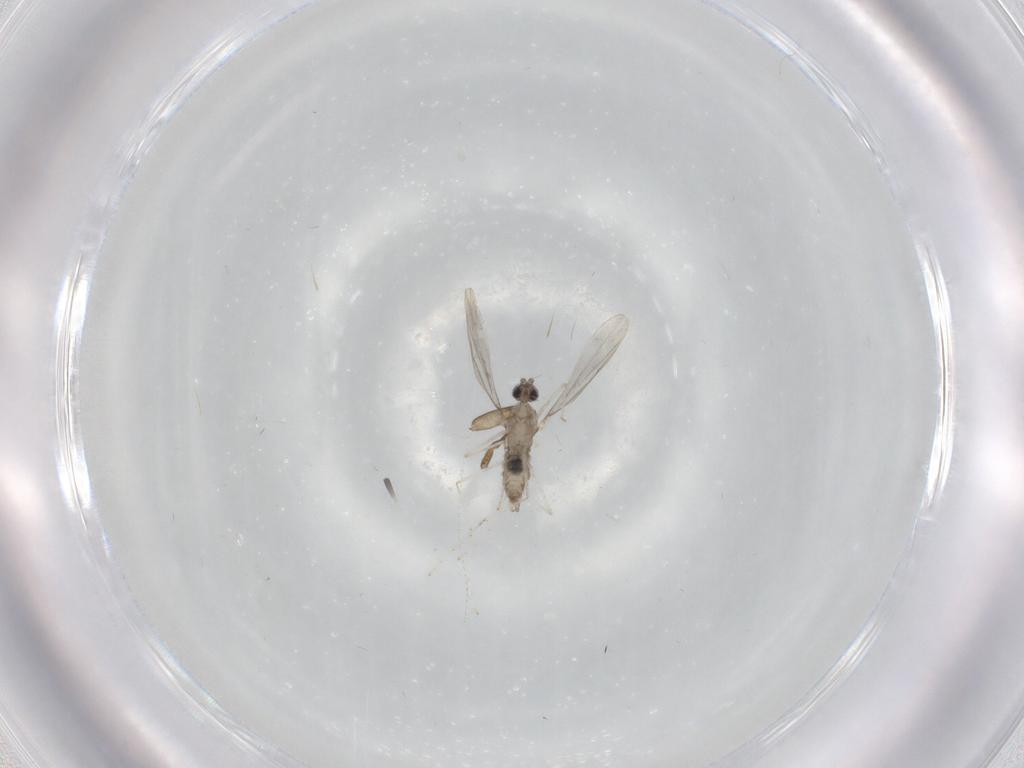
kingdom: Animalia
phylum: Arthropoda
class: Insecta
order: Diptera
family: Cecidomyiidae
